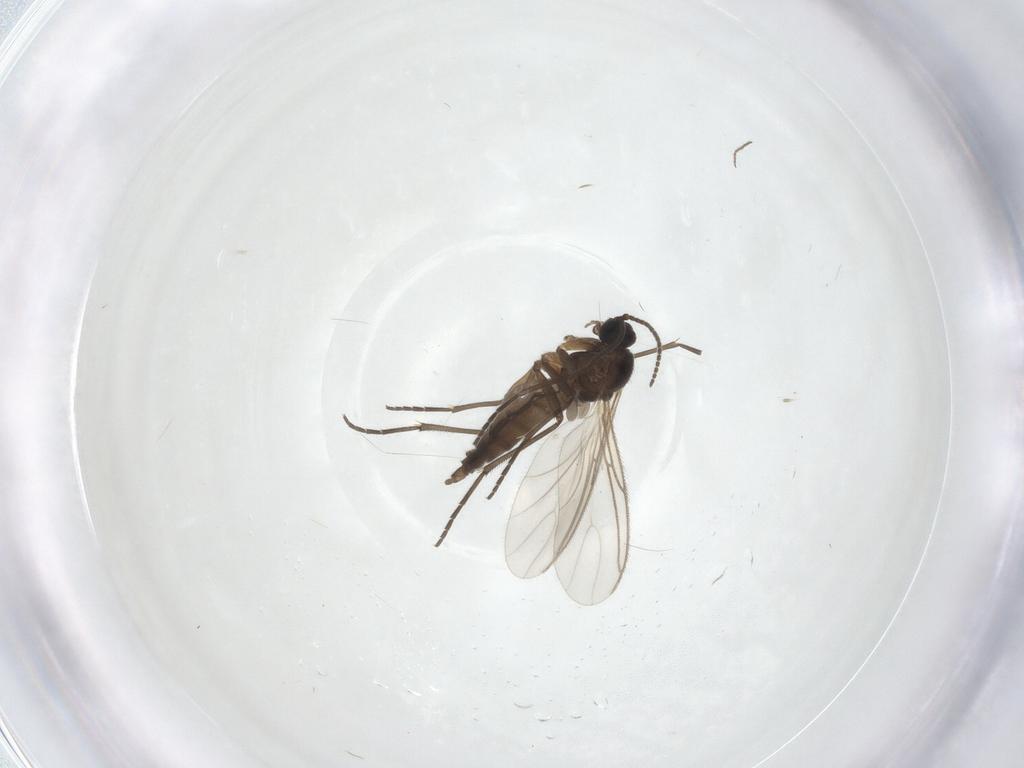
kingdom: Animalia
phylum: Arthropoda
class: Insecta
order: Diptera
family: Chironomidae
